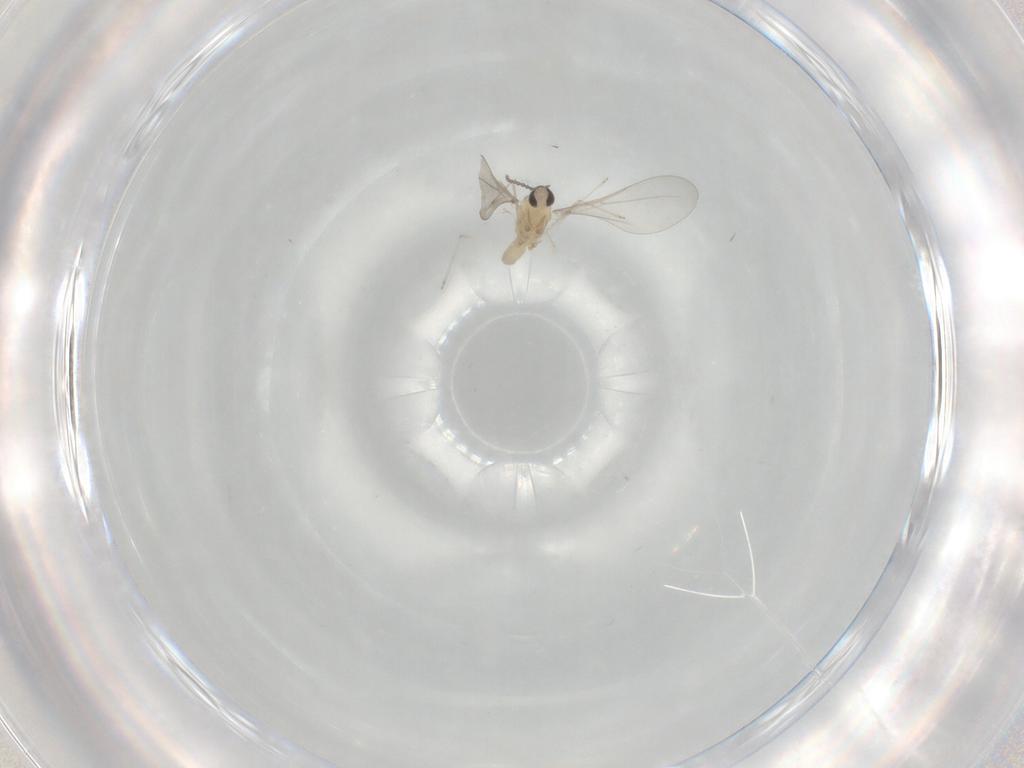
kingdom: Animalia
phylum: Arthropoda
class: Insecta
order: Diptera
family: Cecidomyiidae
